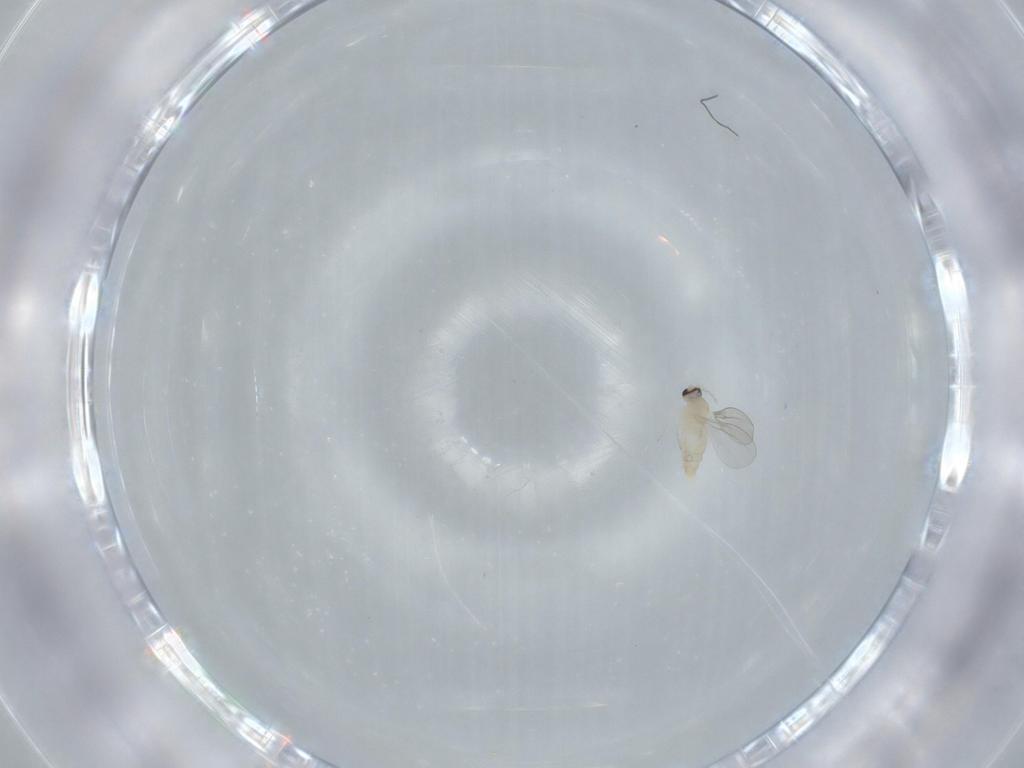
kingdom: Animalia
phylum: Arthropoda
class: Insecta
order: Diptera
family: Cecidomyiidae
